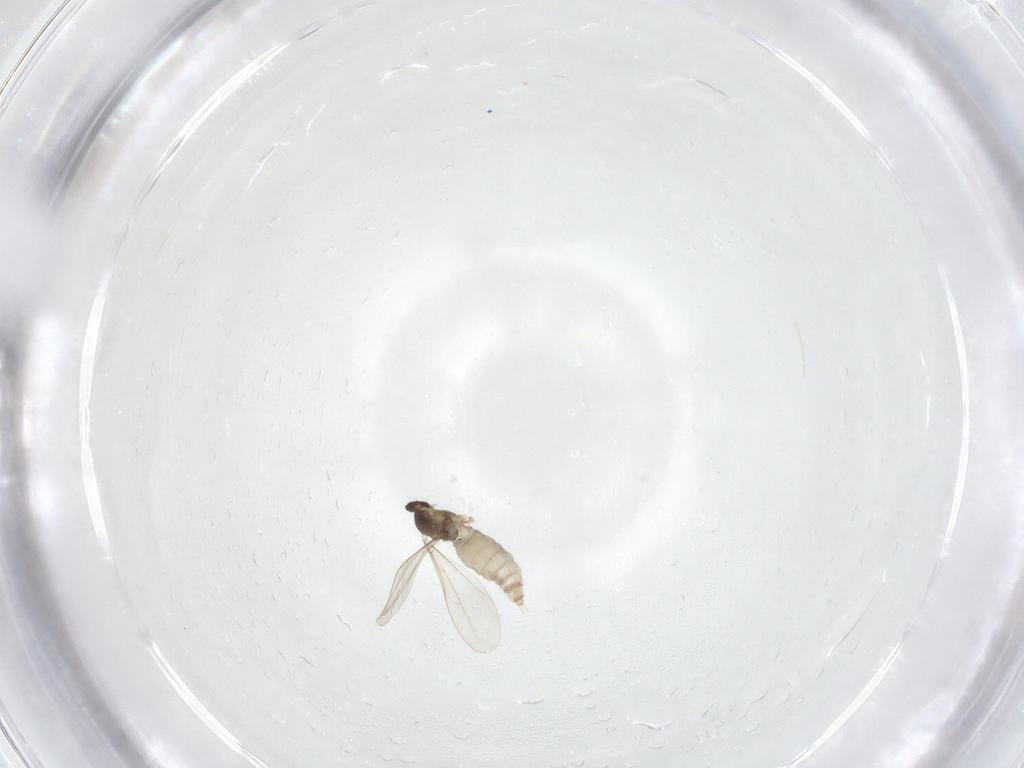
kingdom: Animalia
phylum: Arthropoda
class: Insecta
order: Diptera
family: Cecidomyiidae
